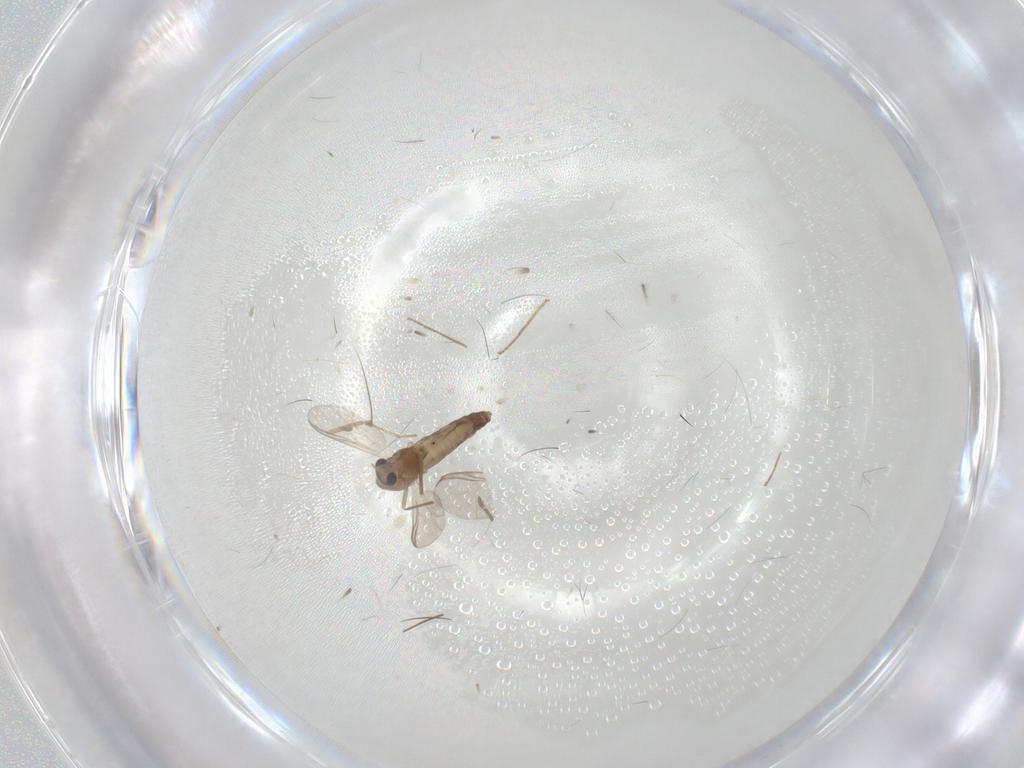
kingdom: Animalia
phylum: Arthropoda
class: Insecta
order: Diptera
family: Chironomidae
